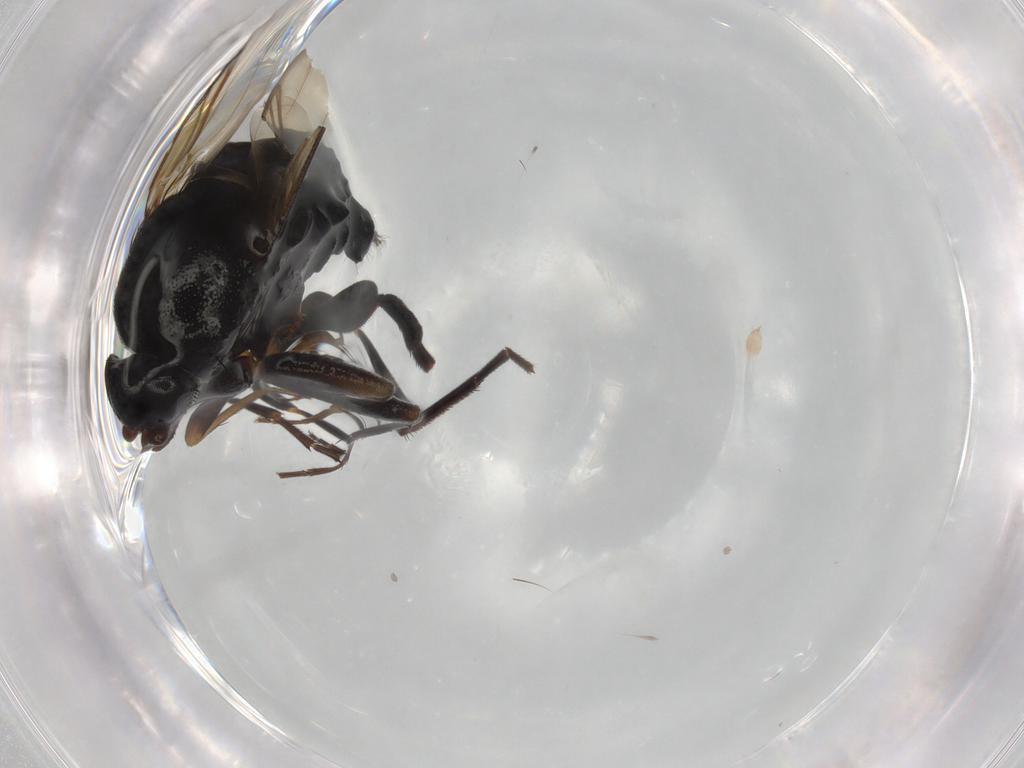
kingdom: Animalia
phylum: Arthropoda
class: Insecta
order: Diptera
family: Phoridae
